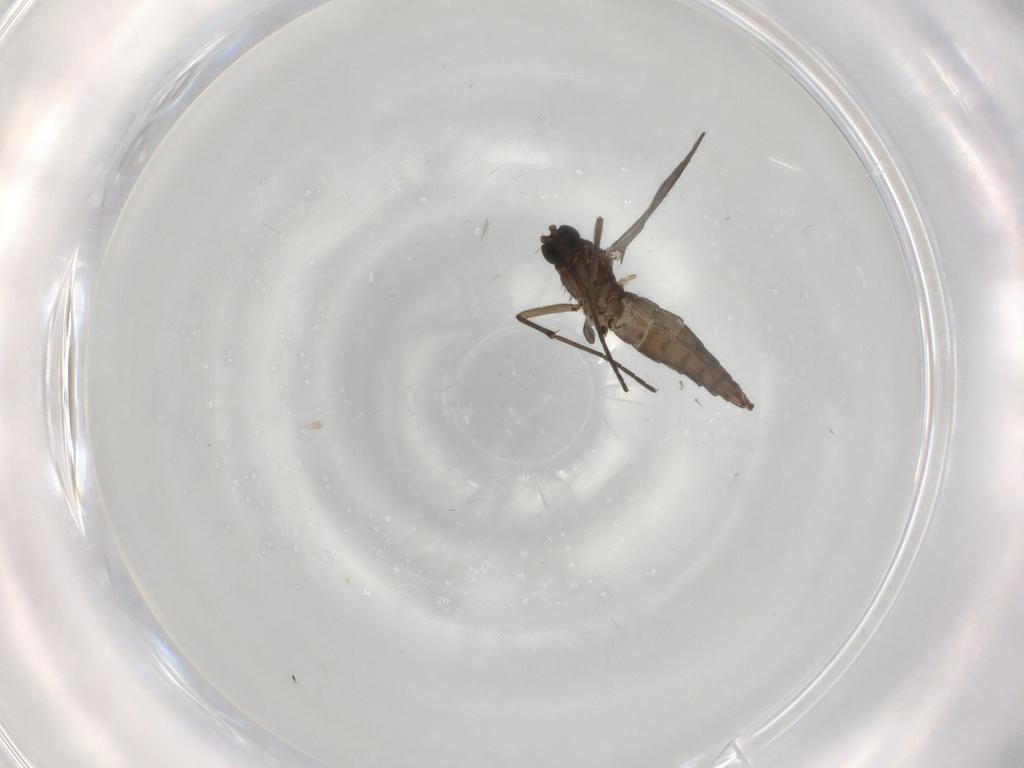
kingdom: Animalia
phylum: Arthropoda
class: Insecta
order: Diptera
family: Sciaridae
